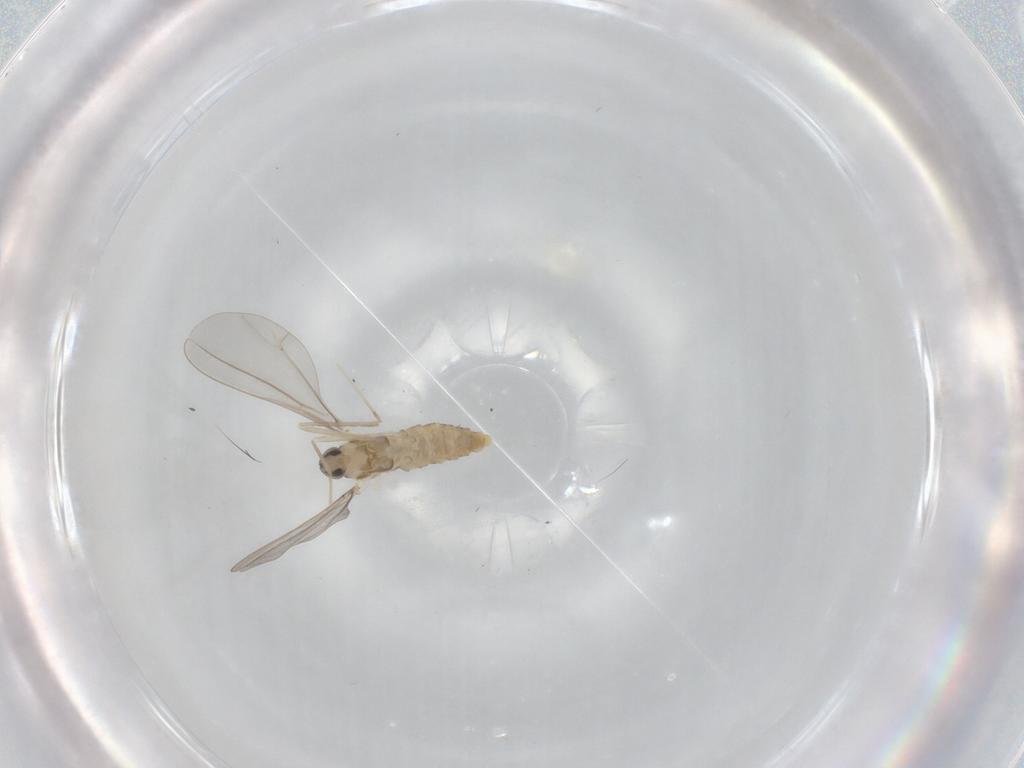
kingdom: Animalia
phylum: Arthropoda
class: Insecta
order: Diptera
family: Cecidomyiidae
